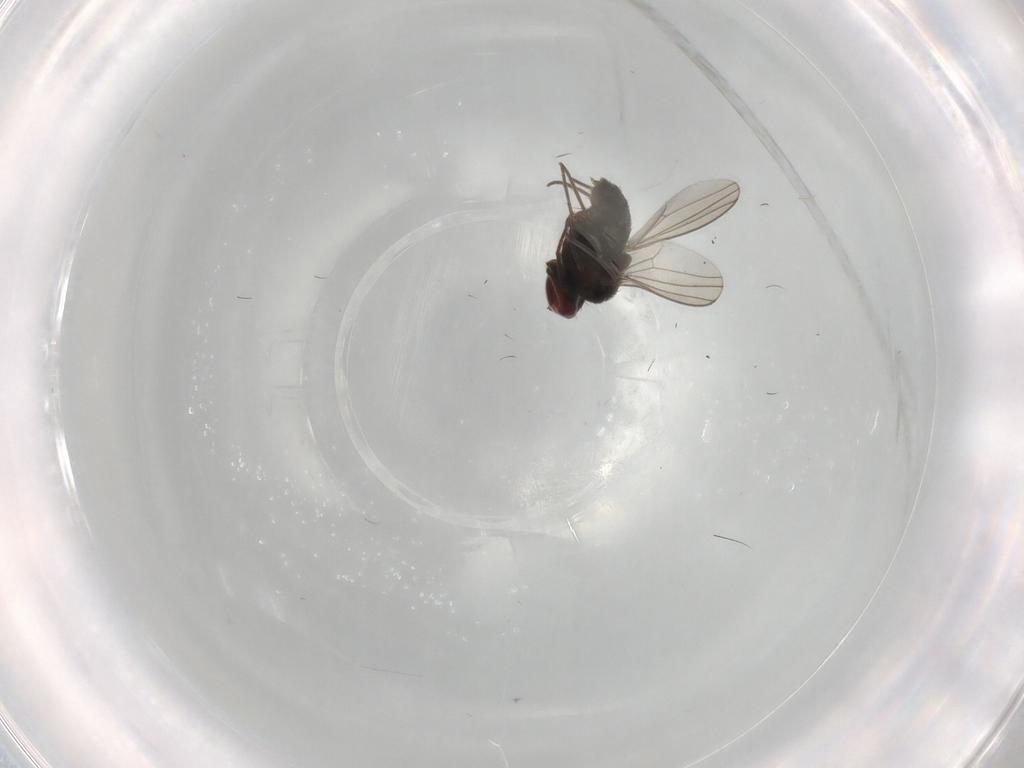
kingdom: Animalia
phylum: Arthropoda
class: Insecta
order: Diptera
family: Dolichopodidae
